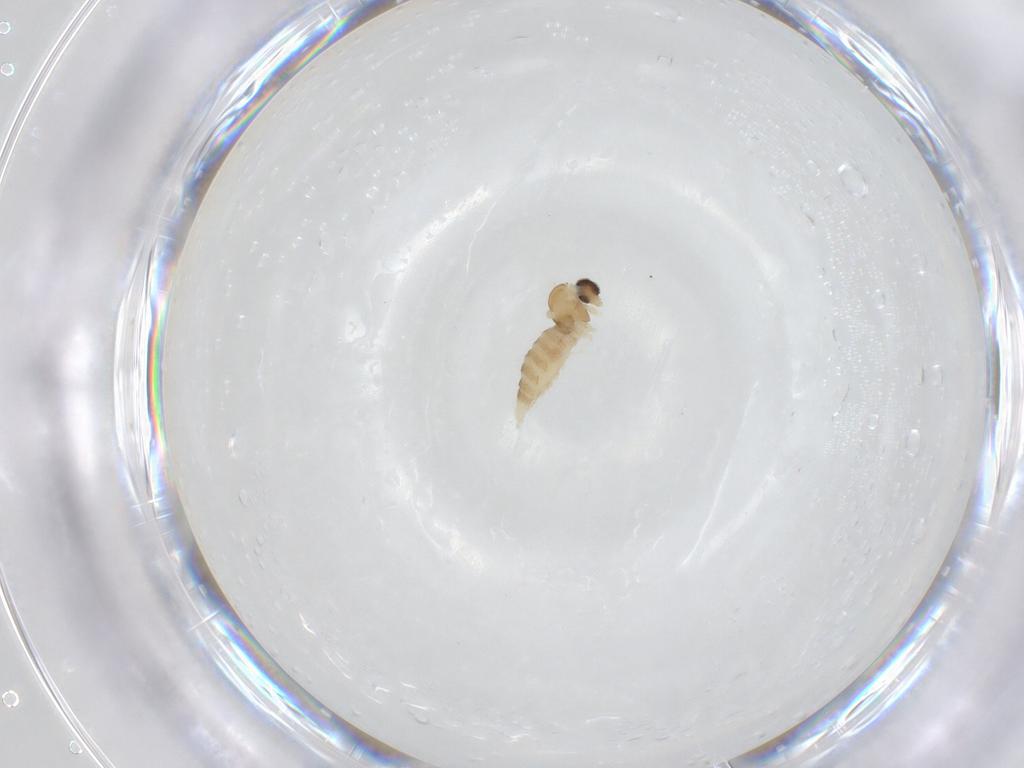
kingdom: Animalia
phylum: Arthropoda
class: Insecta
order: Diptera
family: Cecidomyiidae
